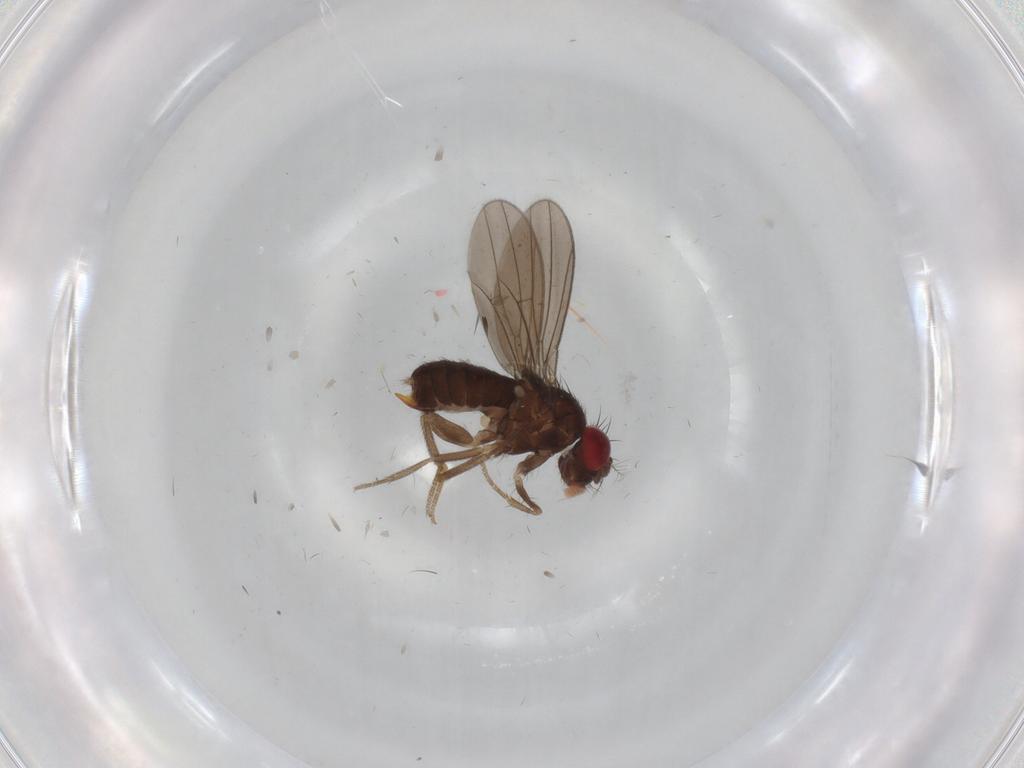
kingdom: Animalia
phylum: Arthropoda
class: Insecta
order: Diptera
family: Drosophilidae
